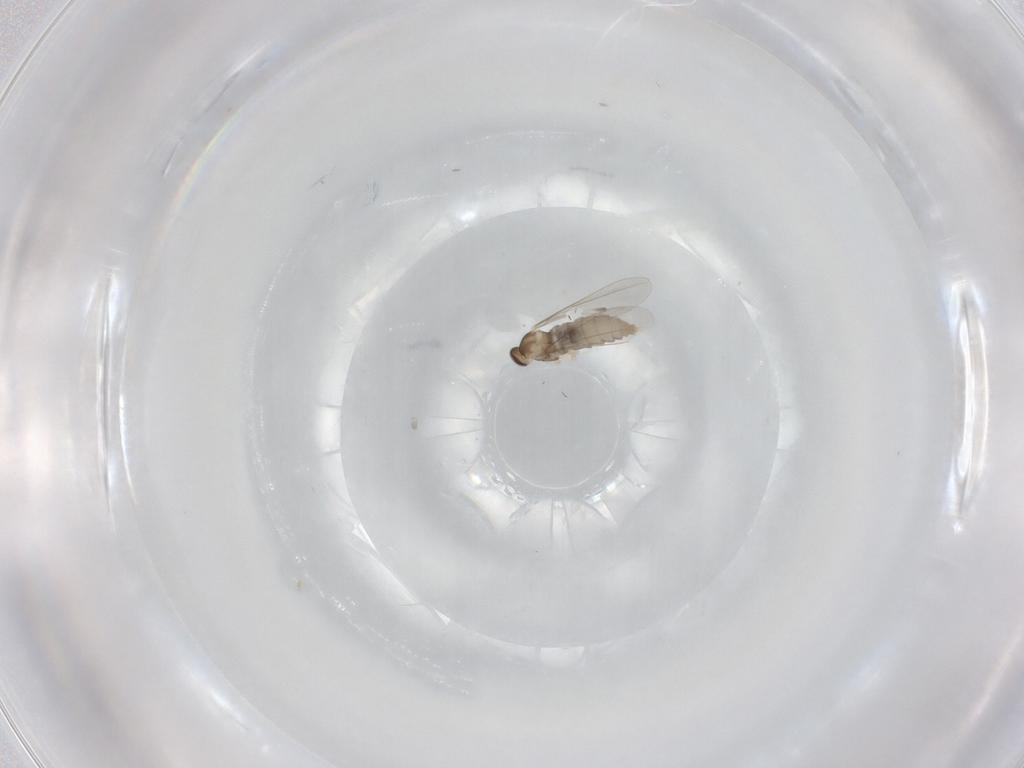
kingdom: Animalia
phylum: Arthropoda
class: Insecta
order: Diptera
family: Cecidomyiidae
